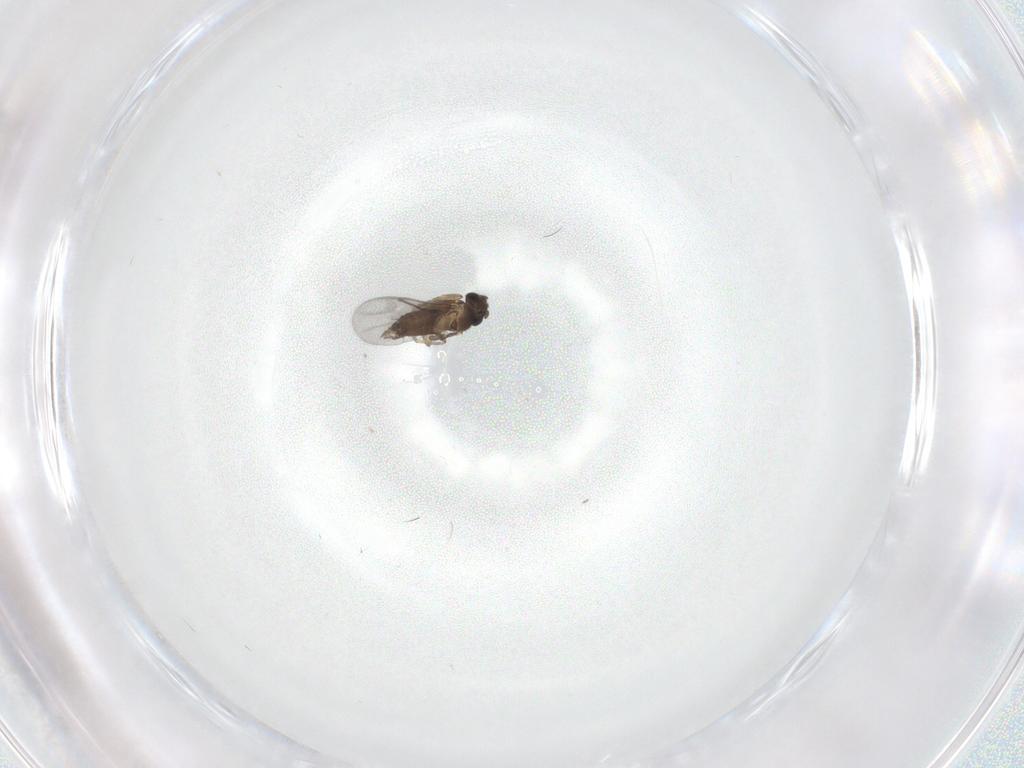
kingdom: Animalia
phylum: Arthropoda
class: Insecta
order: Diptera
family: Phoridae
